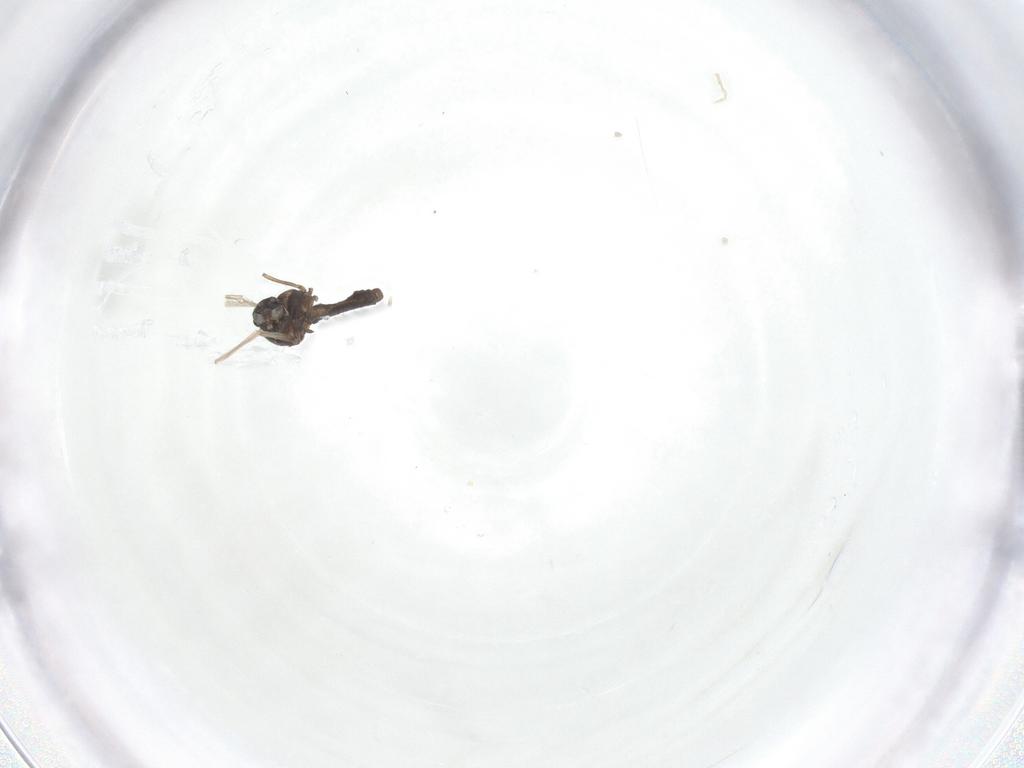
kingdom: Animalia
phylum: Arthropoda
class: Insecta
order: Diptera
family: Ceratopogonidae
